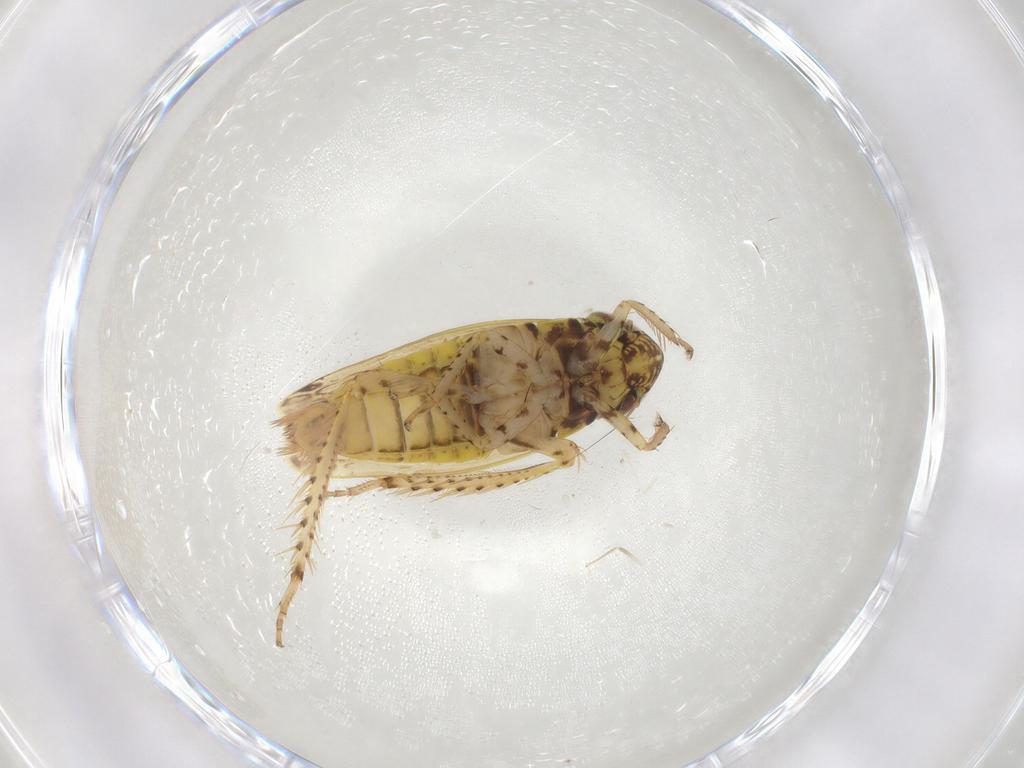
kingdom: Animalia
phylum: Arthropoda
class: Insecta
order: Hemiptera
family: Cicadellidae
